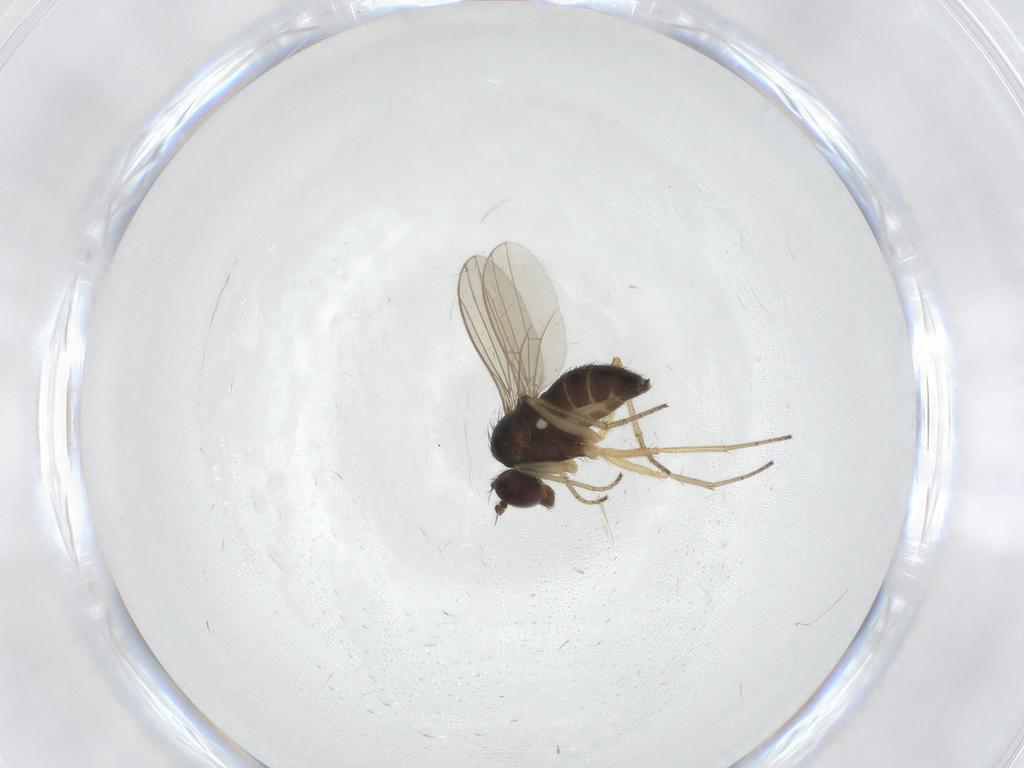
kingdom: Animalia
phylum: Arthropoda
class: Insecta
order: Diptera
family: Dolichopodidae
